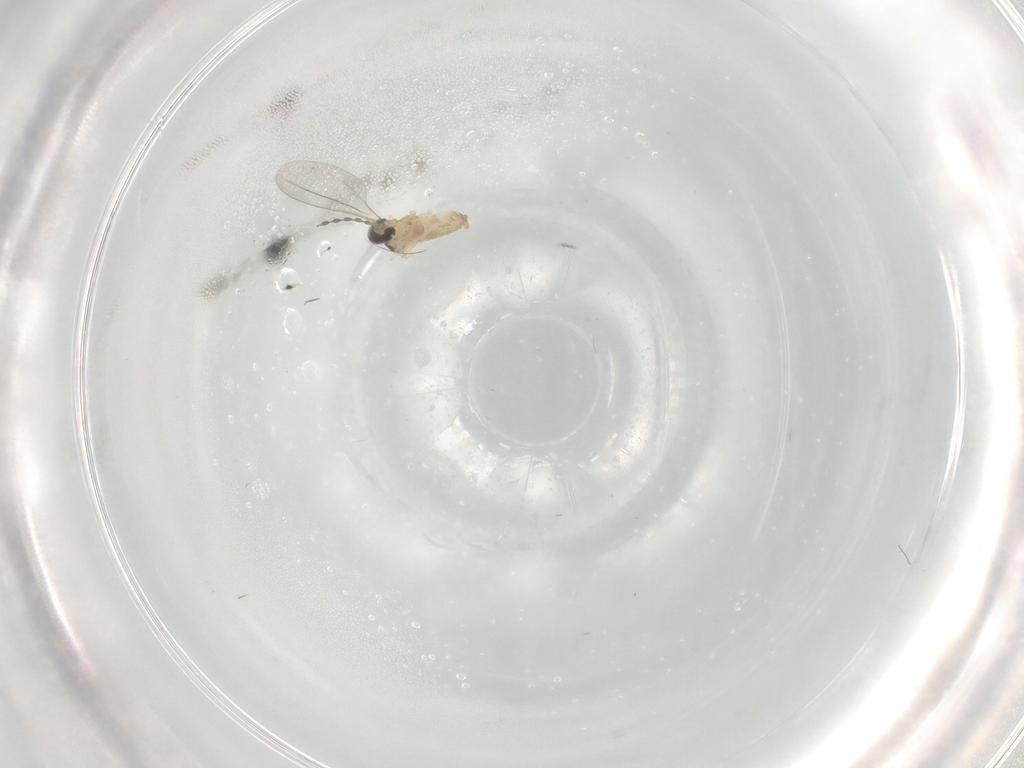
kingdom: Animalia
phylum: Arthropoda
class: Insecta
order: Diptera
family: Cecidomyiidae
